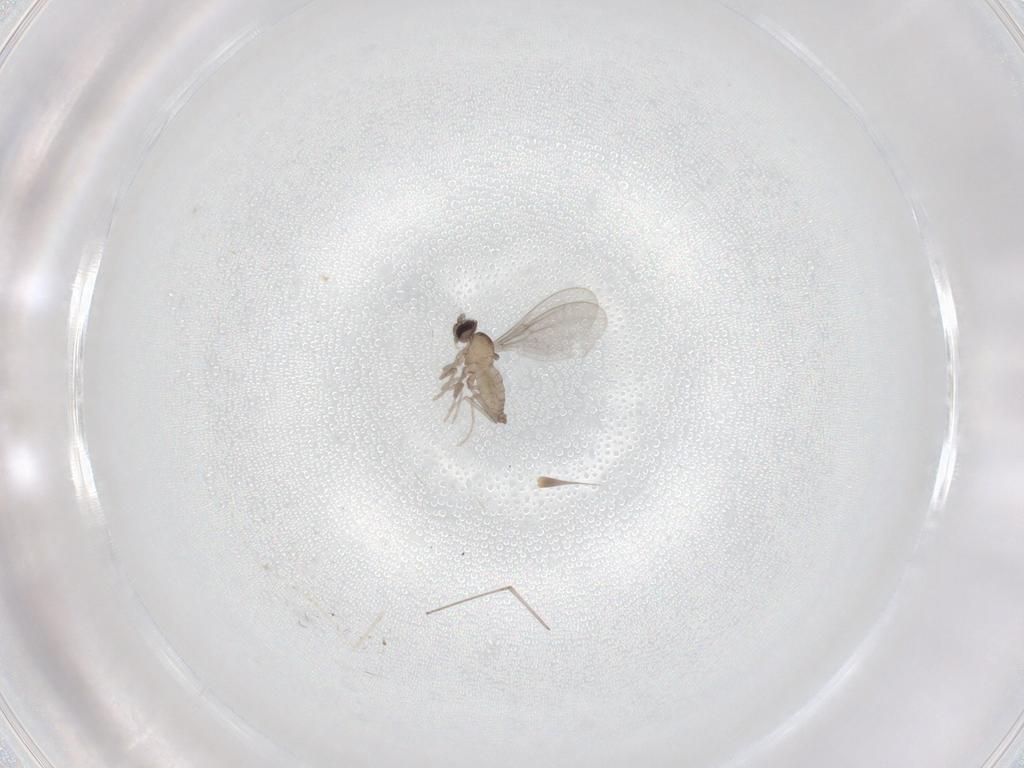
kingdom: Animalia
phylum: Arthropoda
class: Insecta
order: Diptera
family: Cecidomyiidae
